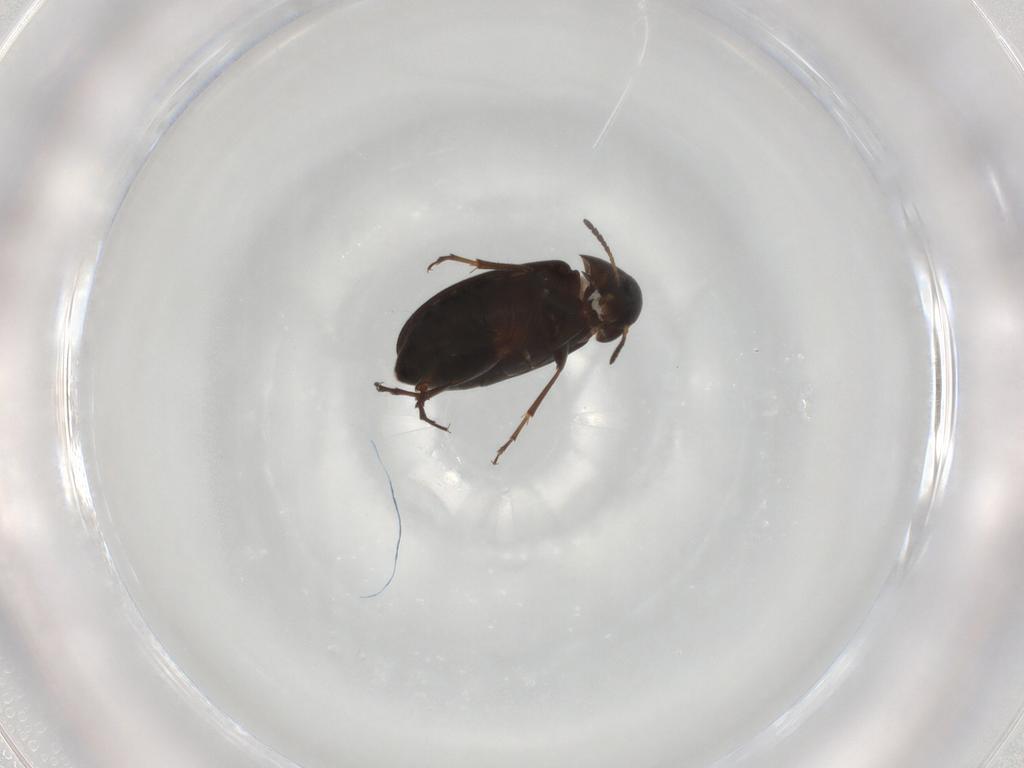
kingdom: Animalia
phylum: Arthropoda
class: Insecta
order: Coleoptera
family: Scraptiidae
